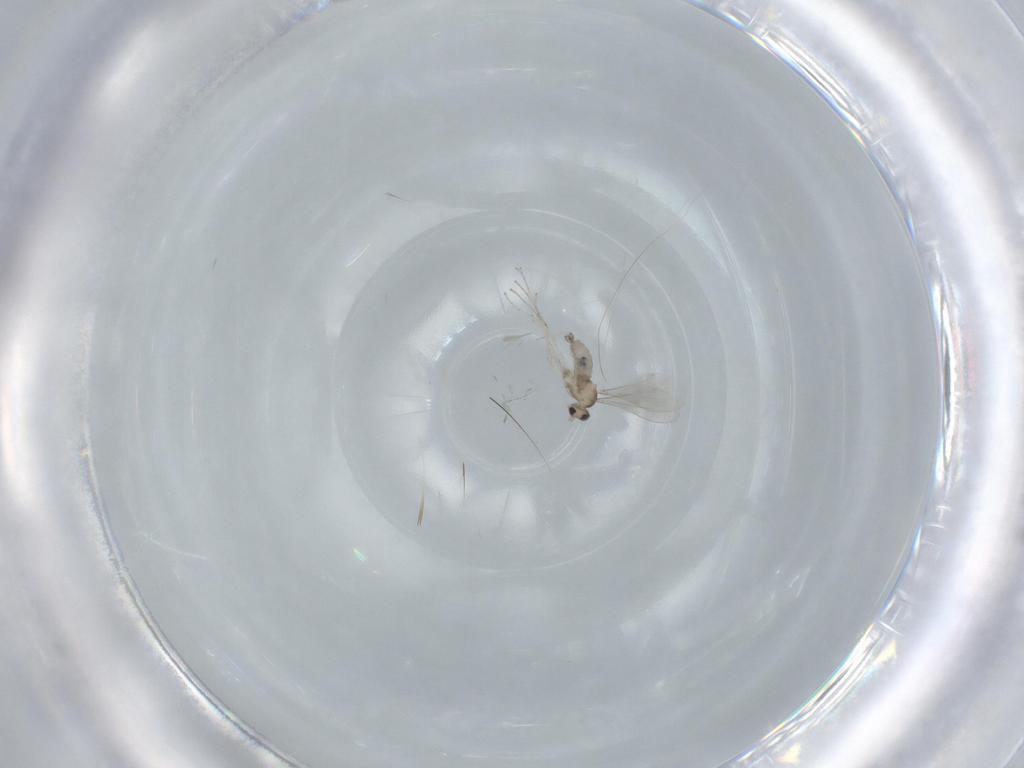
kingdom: Animalia
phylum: Arthropoda
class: Insecta
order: Diptera
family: Cecidomyiidae
